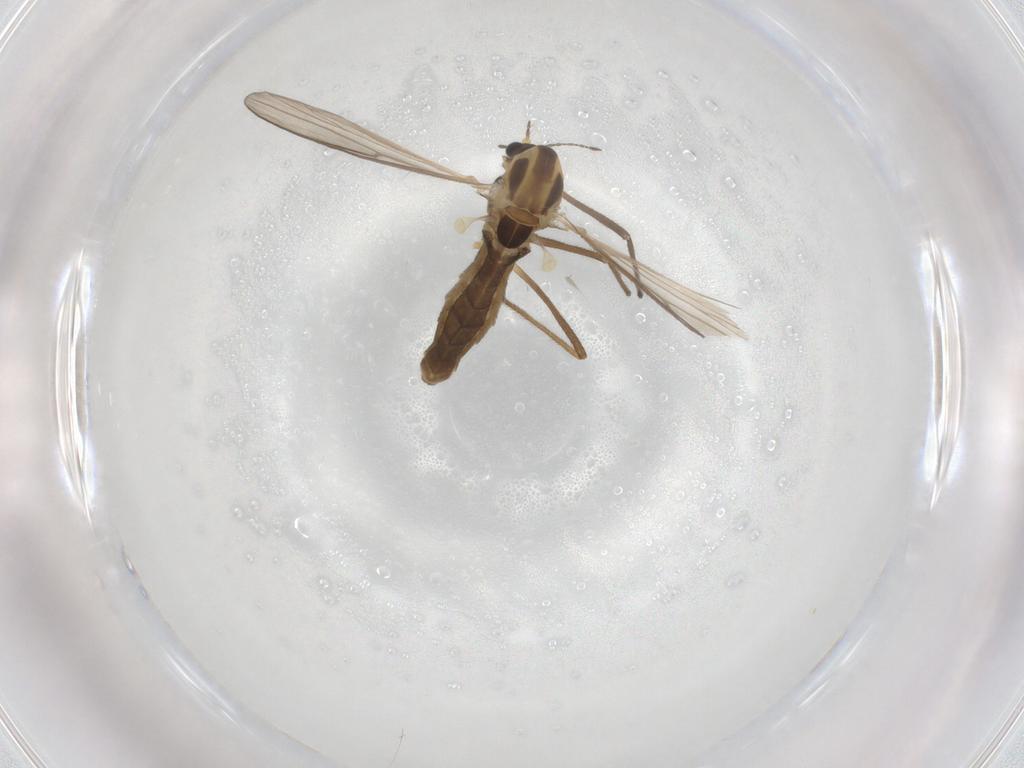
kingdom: Animalia
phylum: Arthropoda
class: Insecta
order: Diptera
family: Chironomidae
